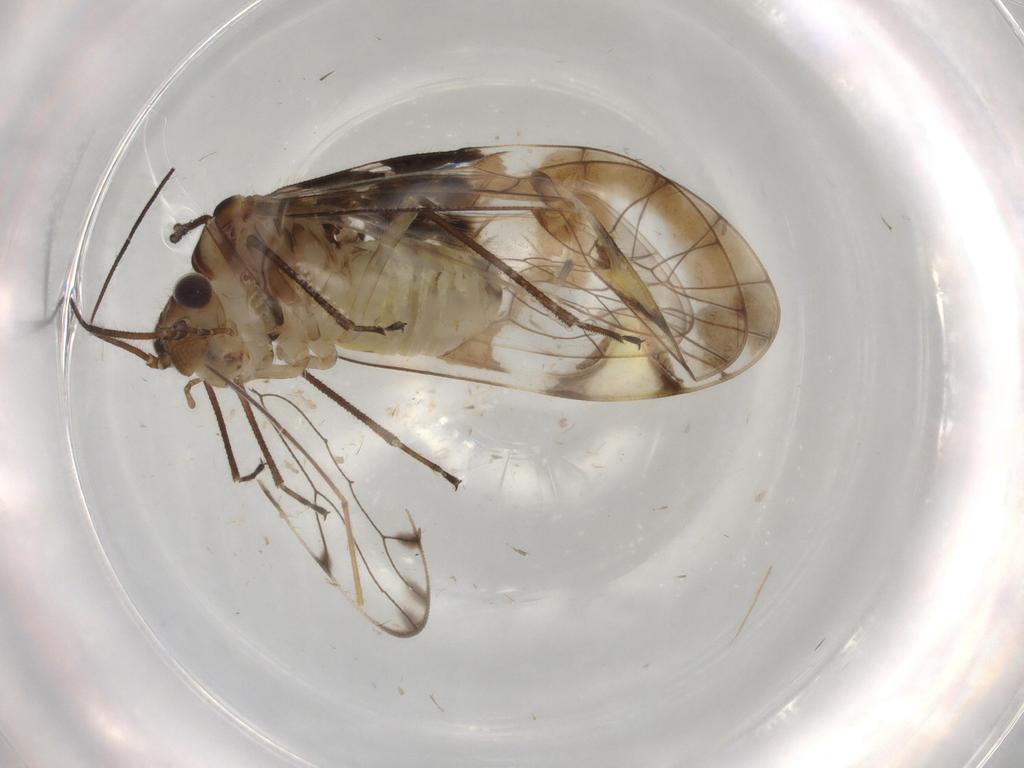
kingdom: Animalia
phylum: Arthropoda
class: Insecta
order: Psocodea
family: Amphipsocidae
